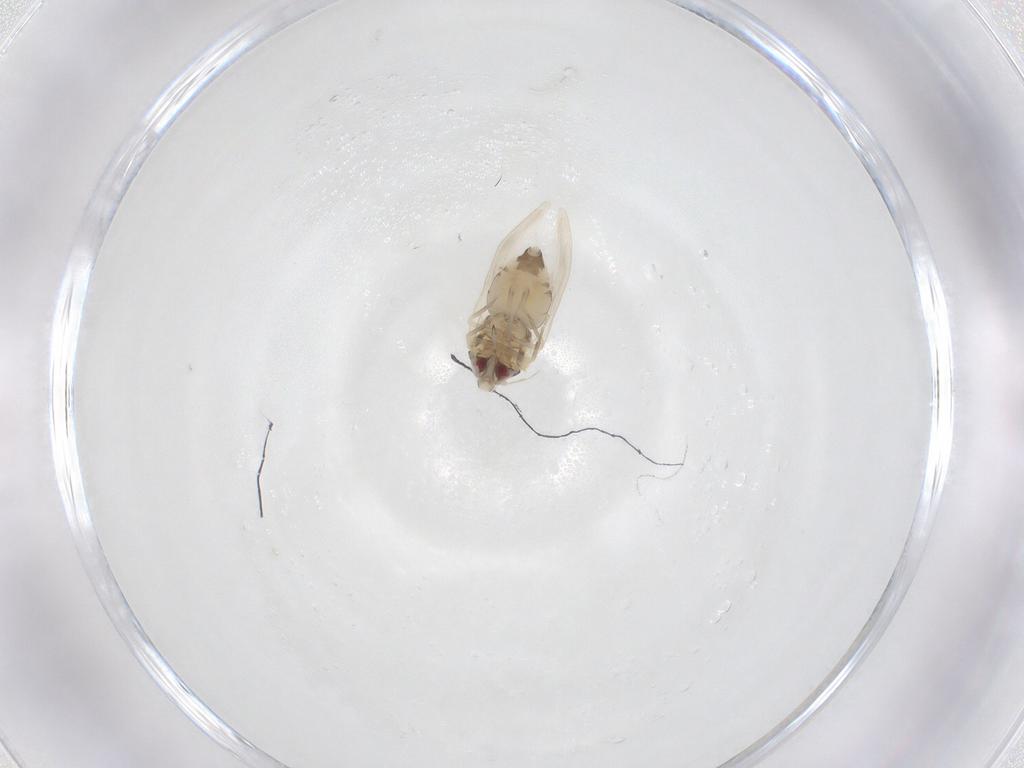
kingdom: Animalia
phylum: Arthropoda
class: Insecta
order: Hemiptera
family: Aleyrodidae
